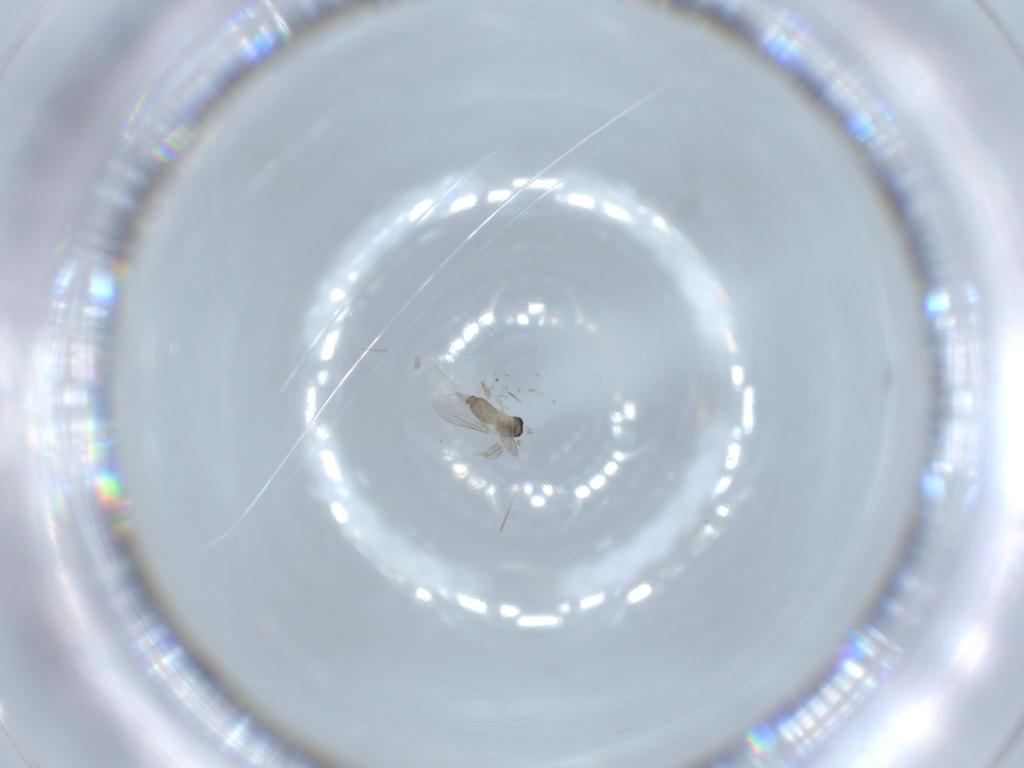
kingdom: Animalia
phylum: Arthropoda
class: Insecta
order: Diptera
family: Cecidomyiidae
